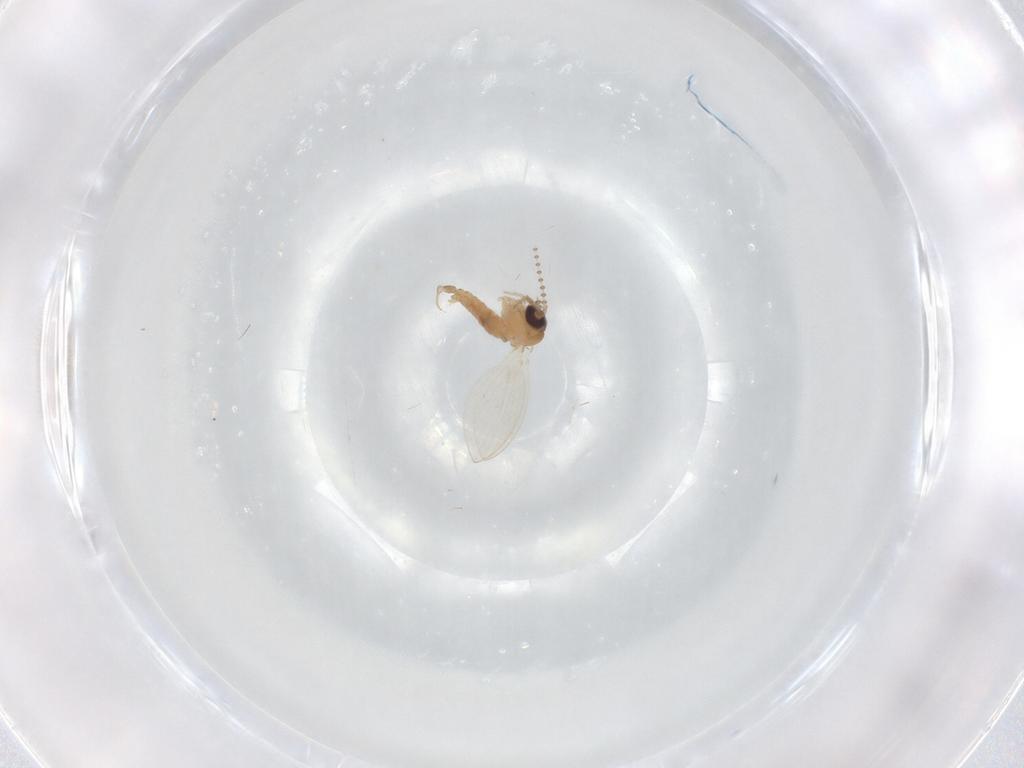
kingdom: Animalia
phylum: Arthropoda
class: Insecta
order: Diptera
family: Psychodidae
